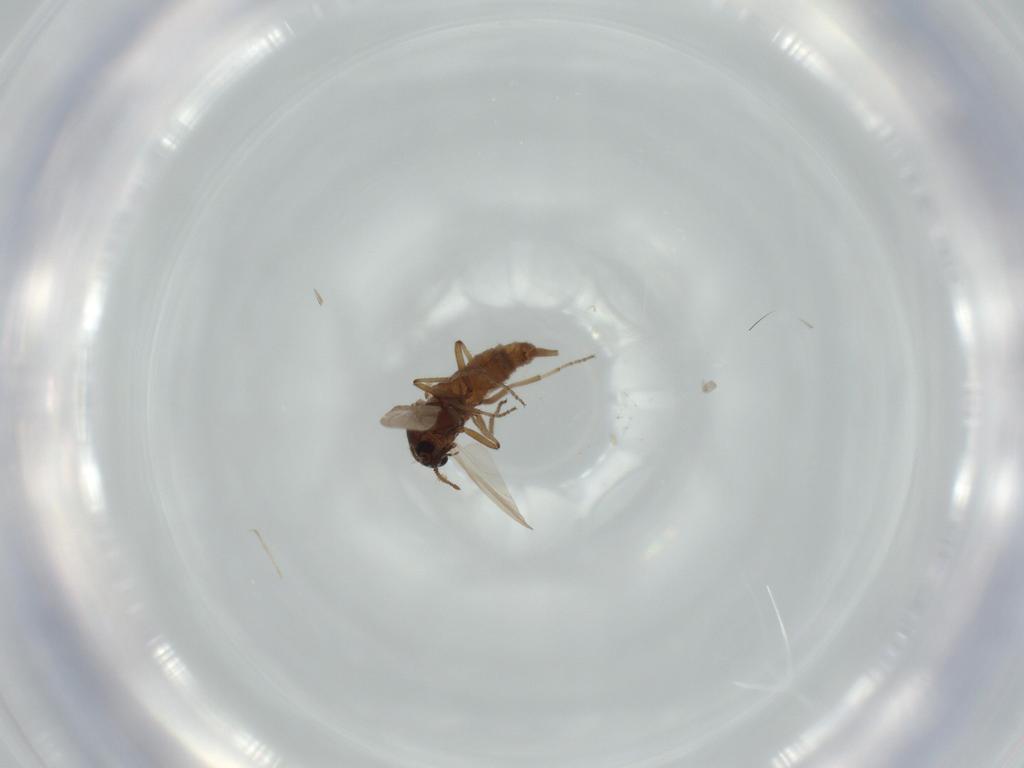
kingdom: Animalia
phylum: Arthropoda
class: Insecta
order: Diptera
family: Ceratopogonidae
